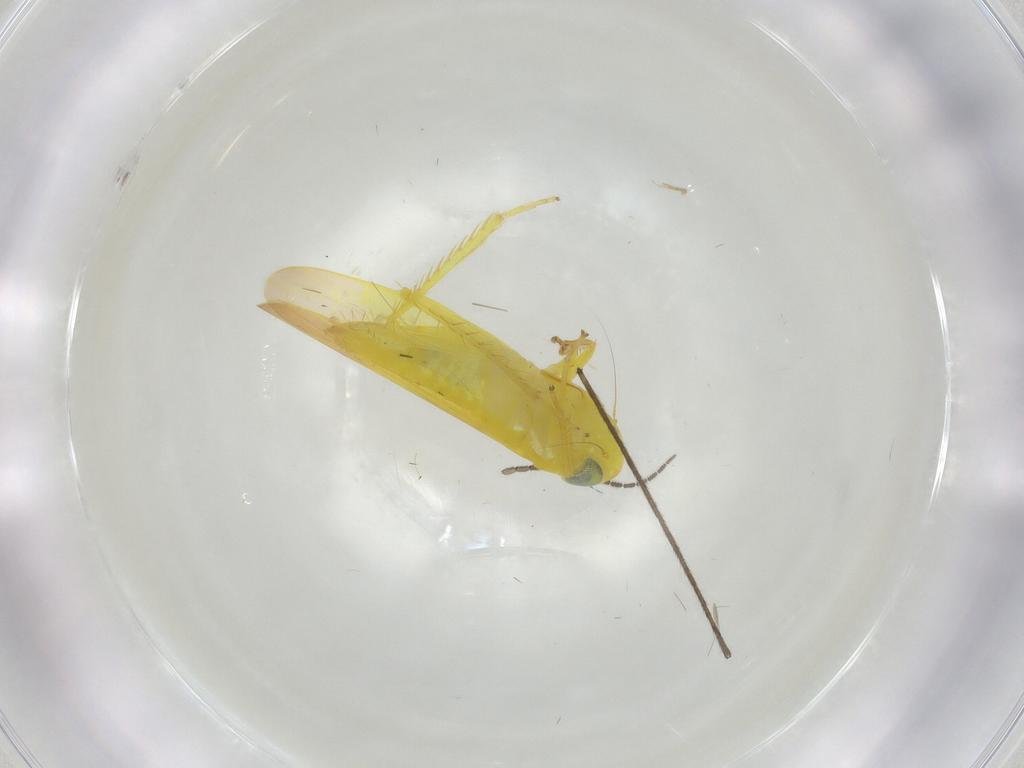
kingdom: Animalia
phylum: Arthropoda
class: Insecta
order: Hemiptera
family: Cicadellidae
